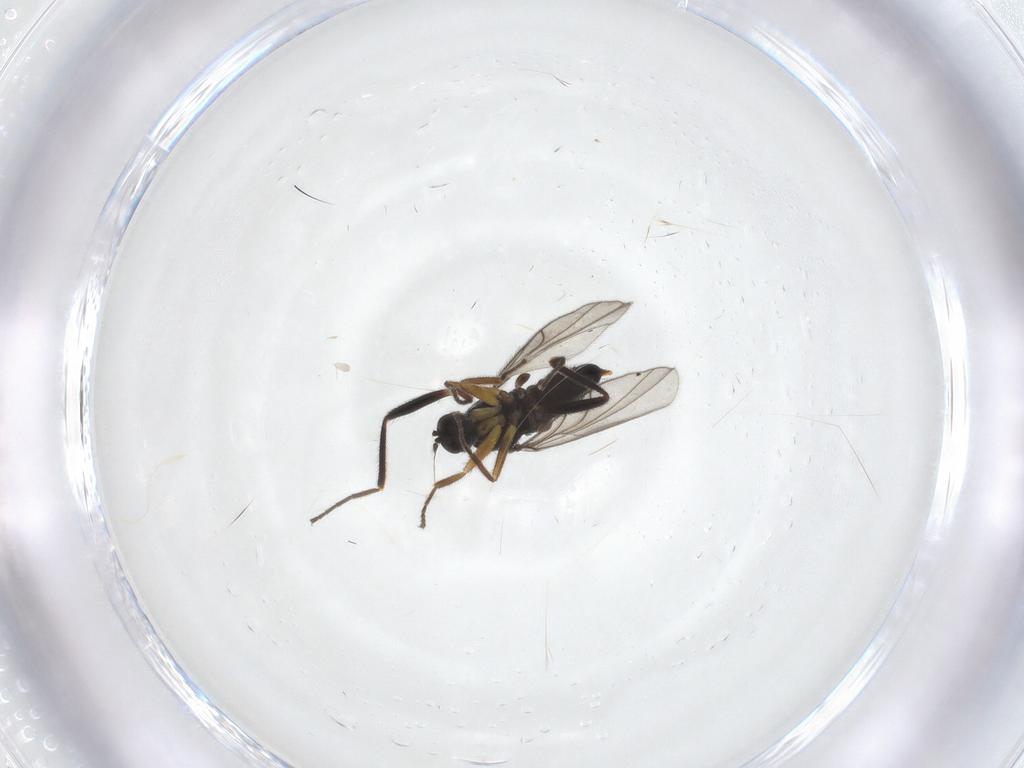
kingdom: Animalia
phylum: Arthropoda
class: Insecta
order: Diptera
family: Hybotidae
